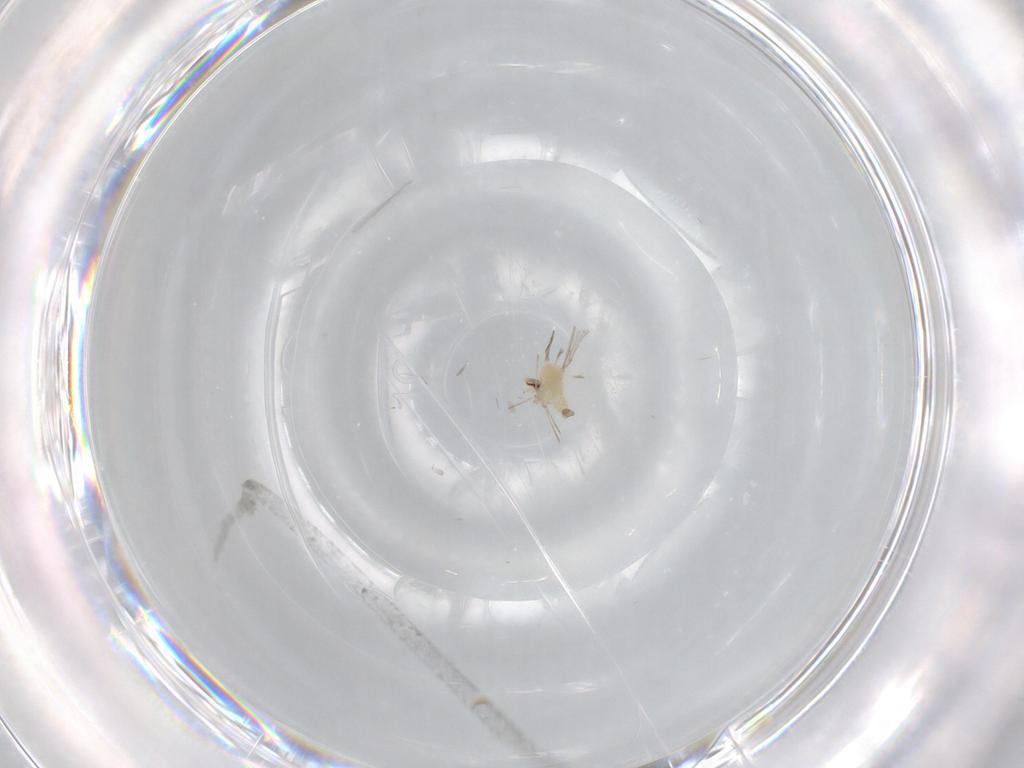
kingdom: Animalia
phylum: Arthropoda
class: Insecta
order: Diptera
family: Cecidomyiidae
